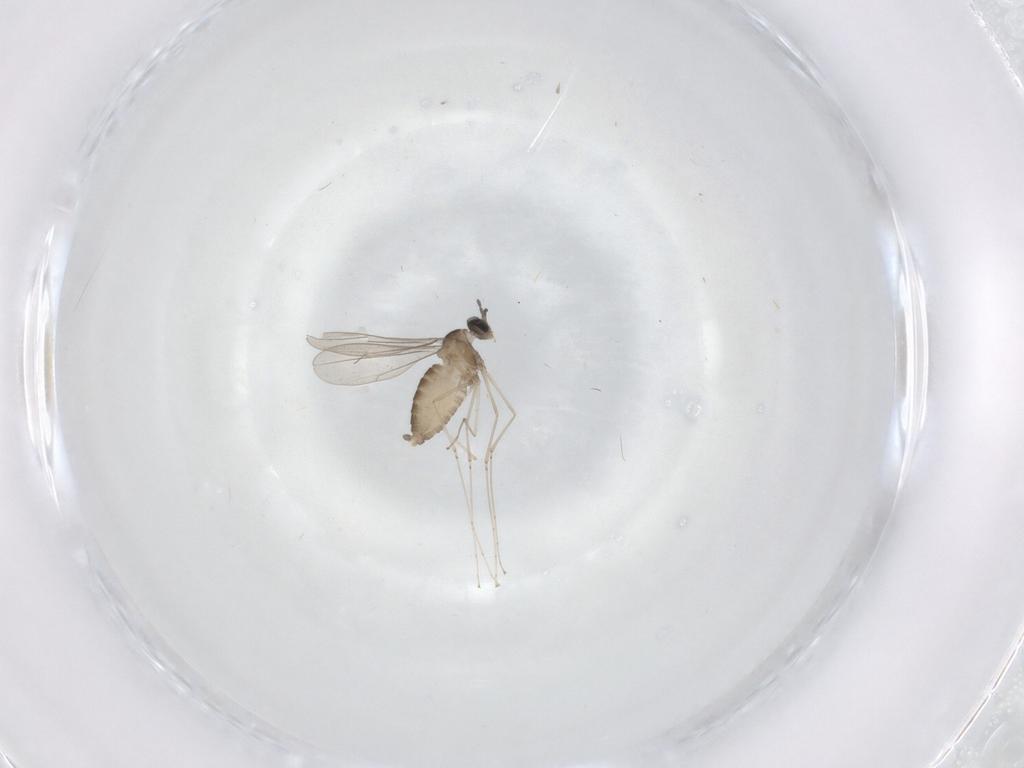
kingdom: Animalia
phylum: Arthropoda
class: Insecta
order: Diptera
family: Cecidomyiidae
